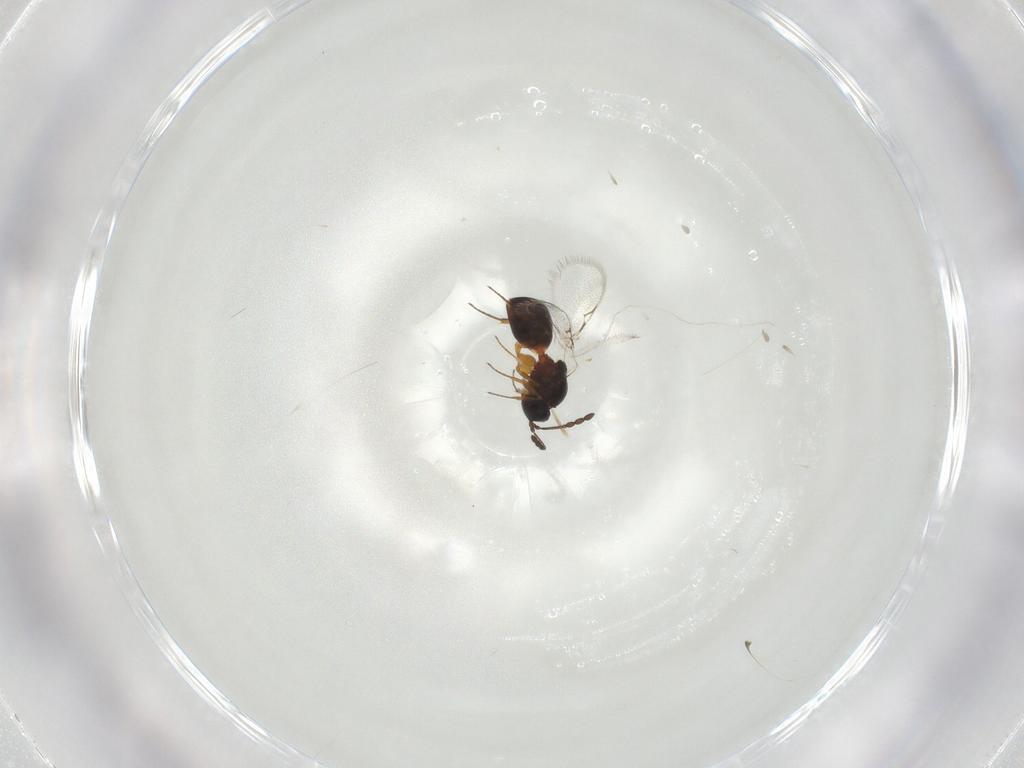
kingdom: Animalia
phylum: Arthropoda
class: Insecta
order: Hymenoptera
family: Figitidae
